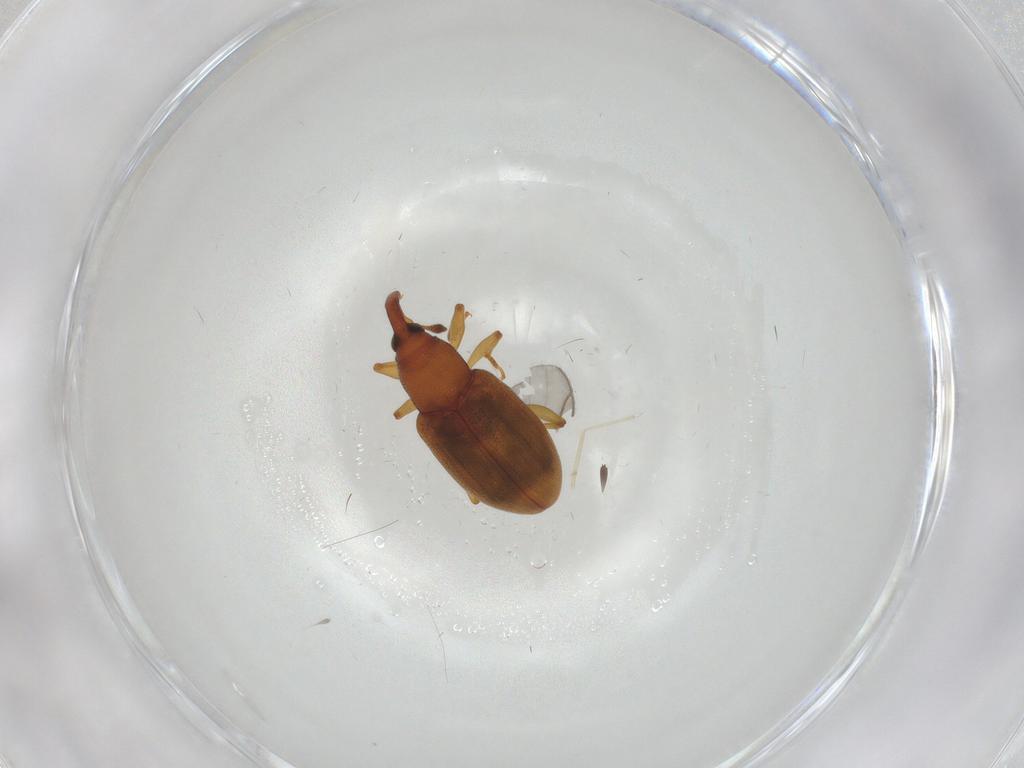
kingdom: Animalia
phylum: Arthropoda
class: Insecta
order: Coleoptera
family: Curculionidae
